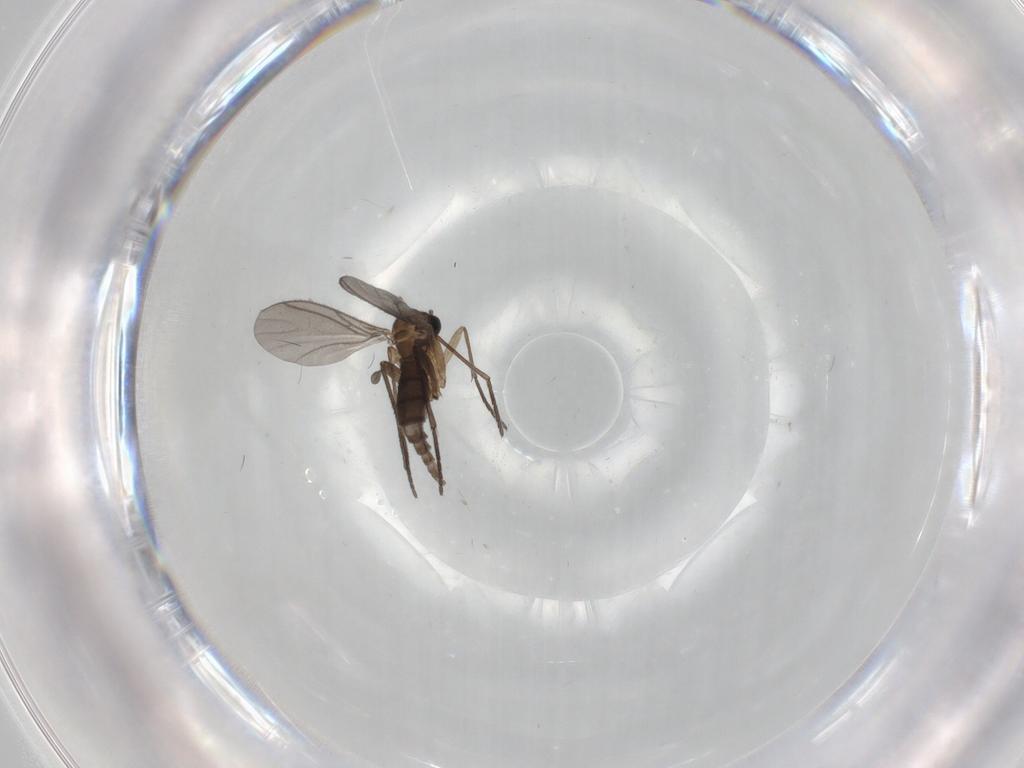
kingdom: Animalia
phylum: Arthropoda
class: Insecta
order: Diptera
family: Sciaridae
